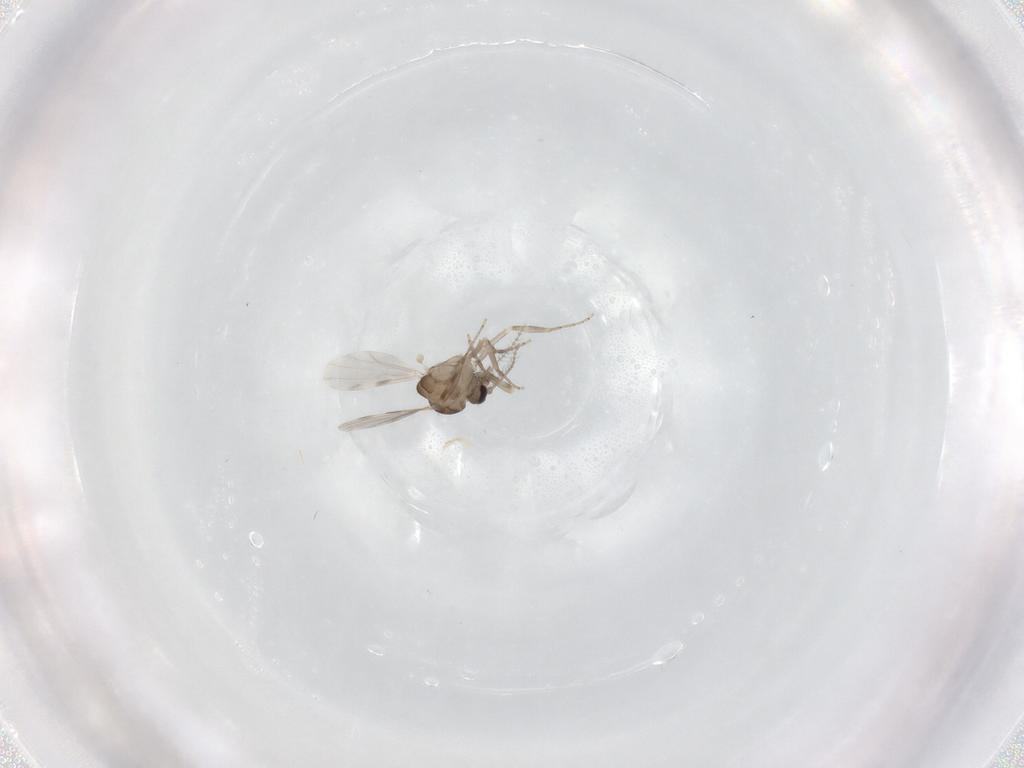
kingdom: Animalia
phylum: Arthropoda
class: Insecta
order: Diptera
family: Ceratopogonidae
